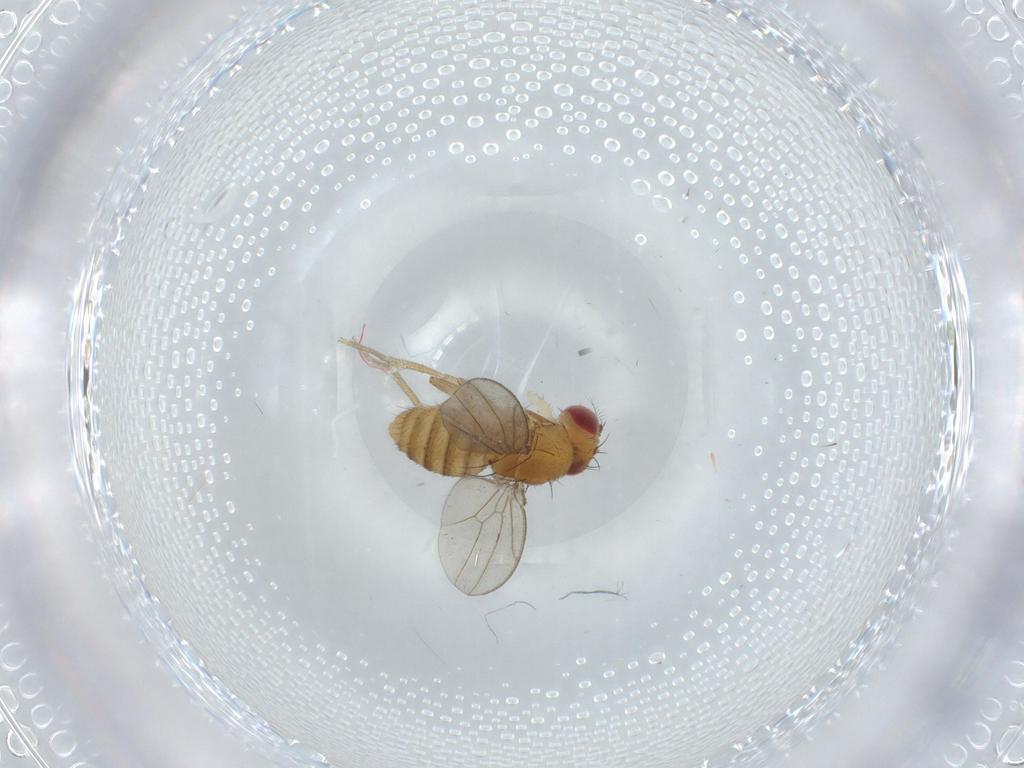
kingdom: Animalia
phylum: Arthropoda
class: Insecta
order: Diptera
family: Drosophilidae
